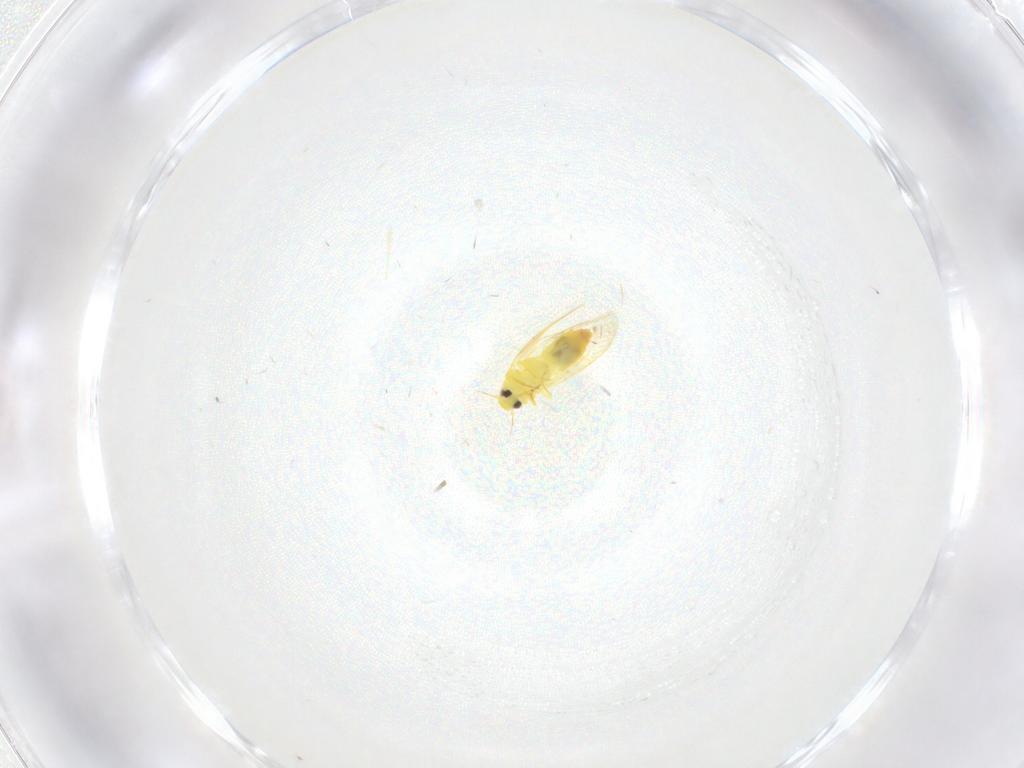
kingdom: Animalia
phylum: Arthropoda
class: Insecta
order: Hemiptera
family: Aleyrodidae
